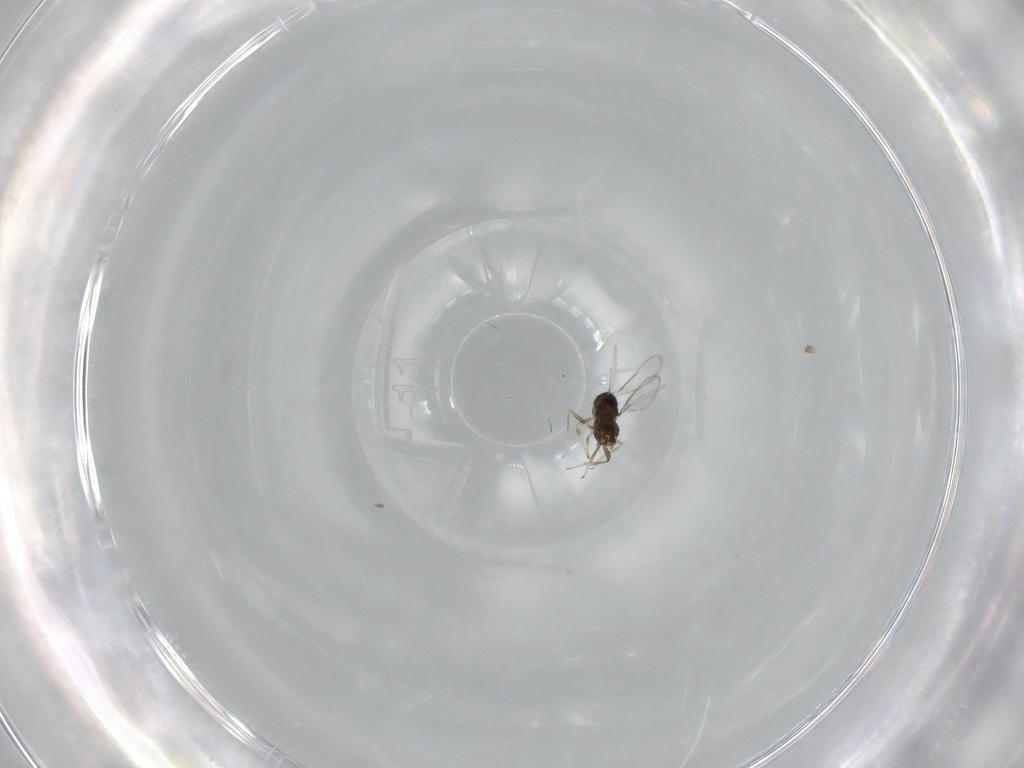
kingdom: Animalia
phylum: Arthropoda
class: Insecta
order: Hymenoptera
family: Aphelinidae
